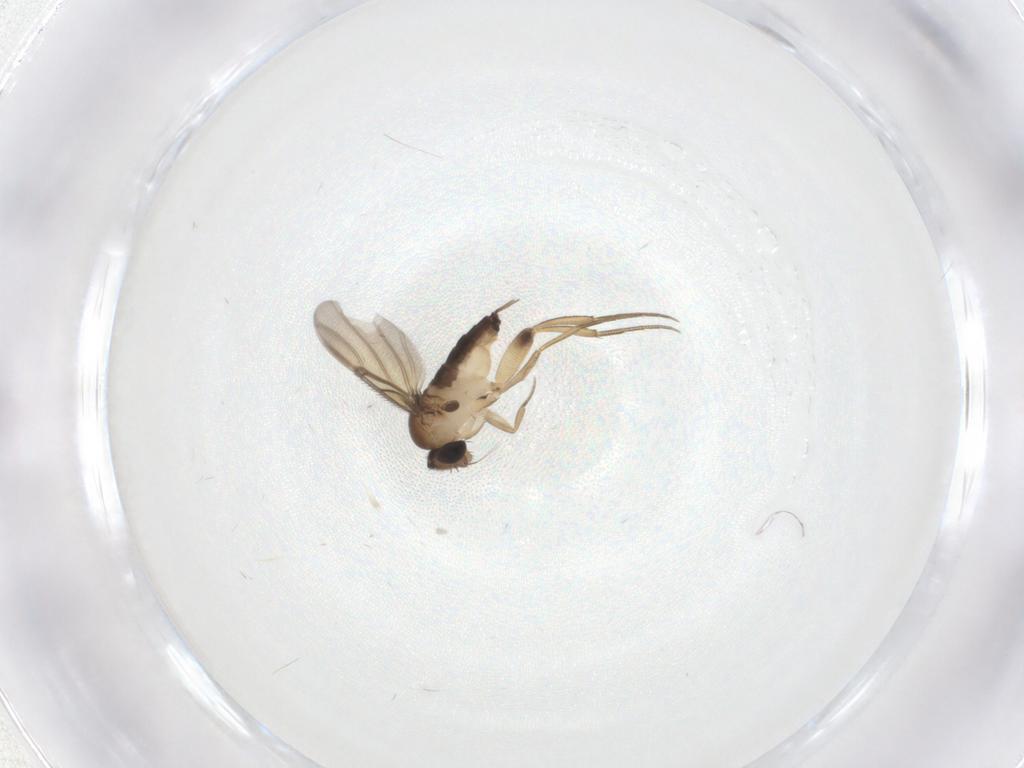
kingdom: Animalia
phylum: Arthropoda
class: Insecta
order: Diptera
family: Phoridae
